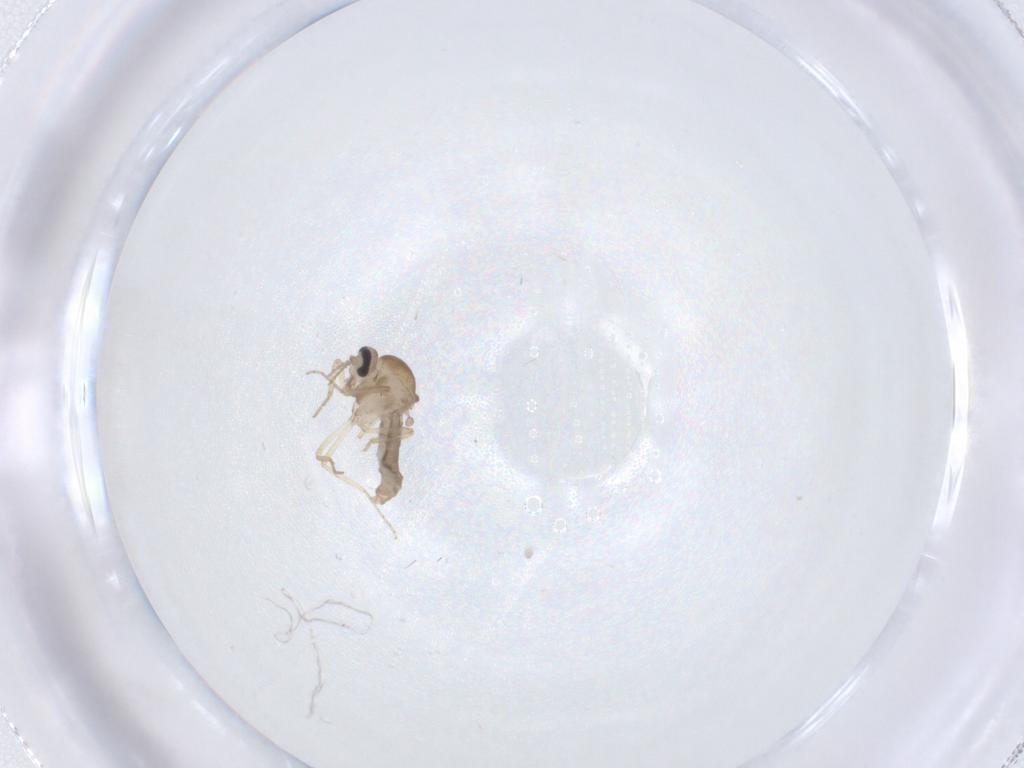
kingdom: Animalia
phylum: Arthropoda
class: Insecta
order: Diptera
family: Ceratopogonidae
